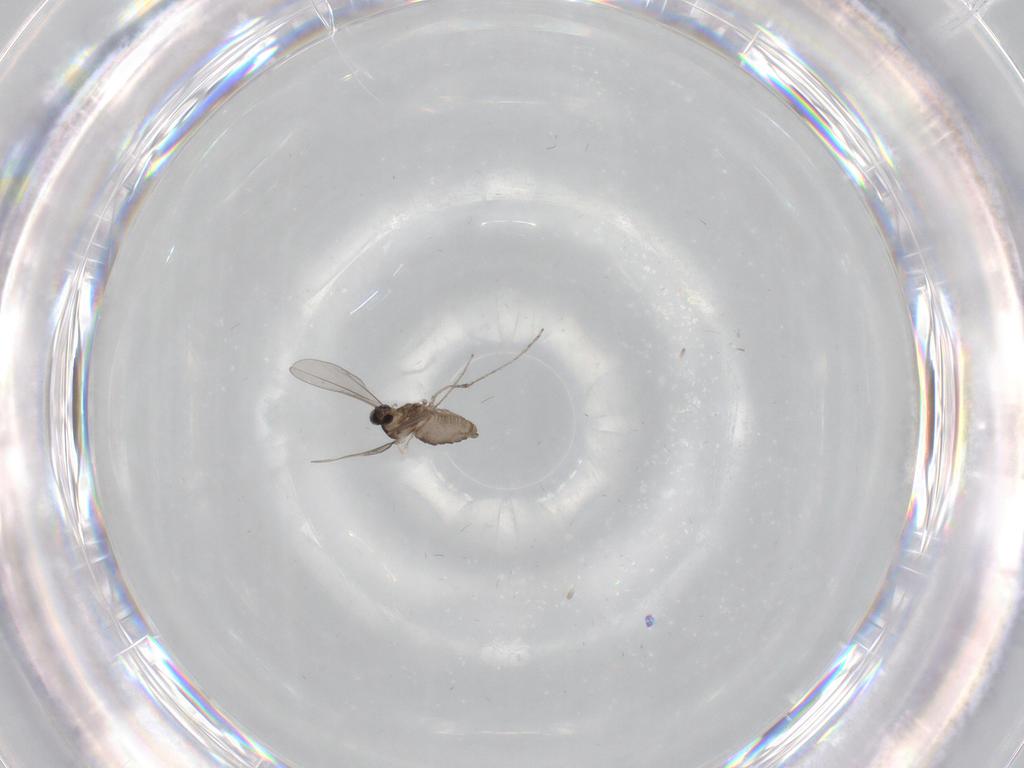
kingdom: Animalia
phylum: Arthropoda
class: Insecta
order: Diptera
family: Limoniidae
